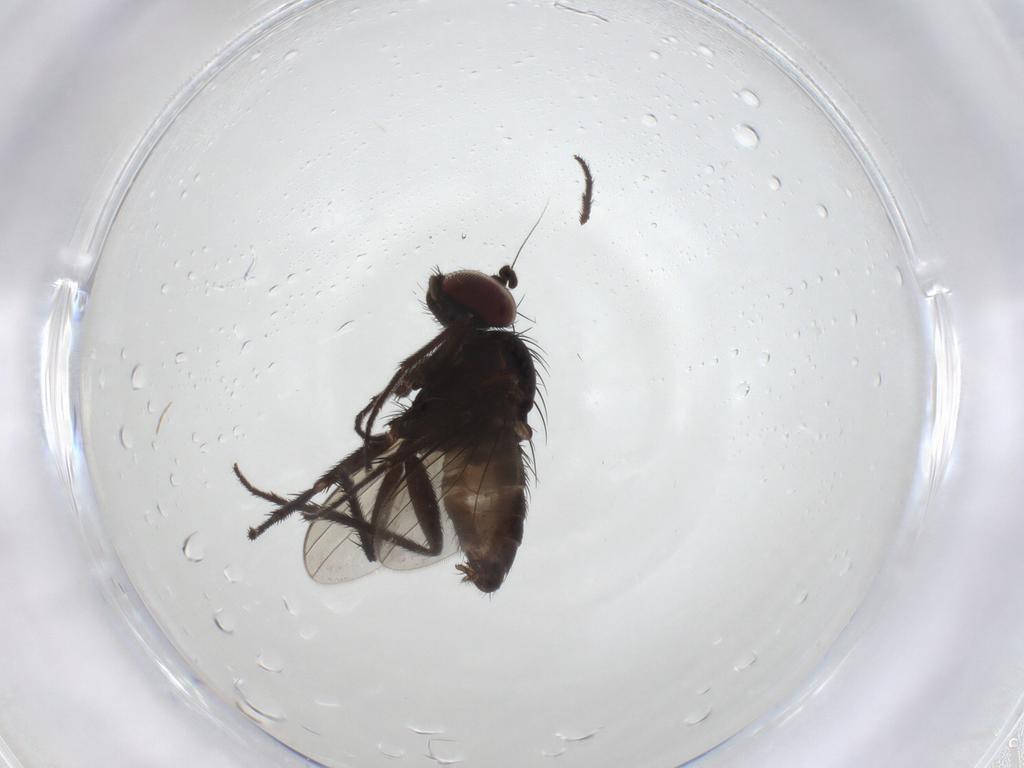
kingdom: Animalia
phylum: Arthropoda
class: Insecta
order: Diptera
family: Dolichopodidae
